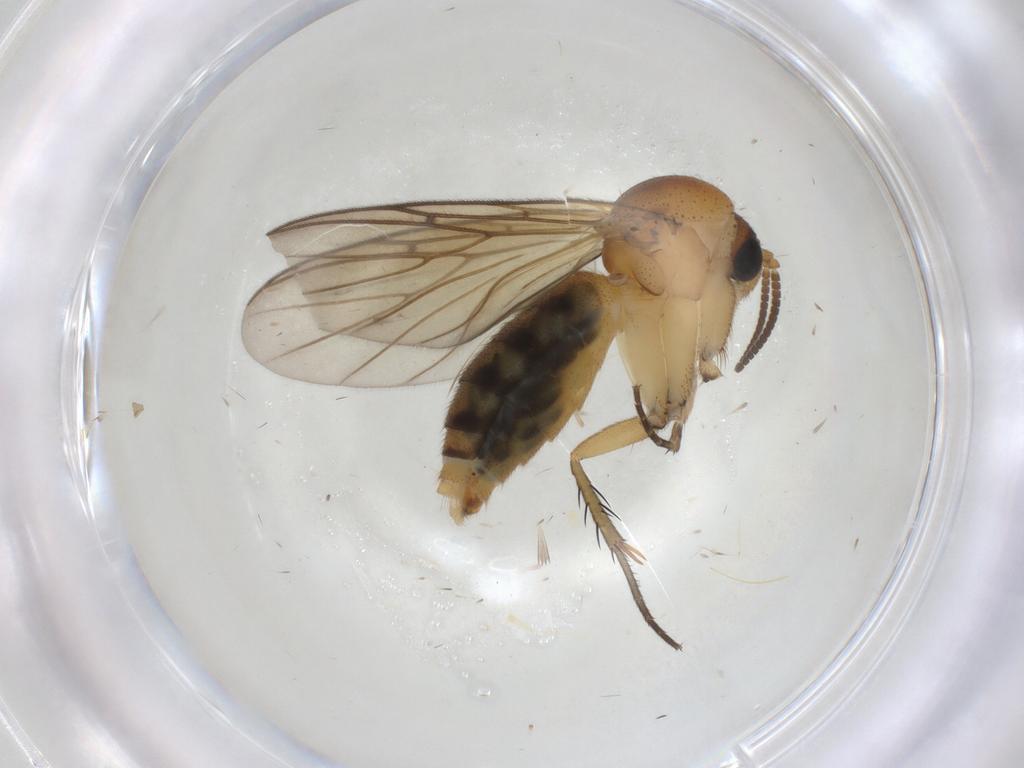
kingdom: Animalia
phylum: Arthropoda
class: Insecta
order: Diptera
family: Mycetophilidae
